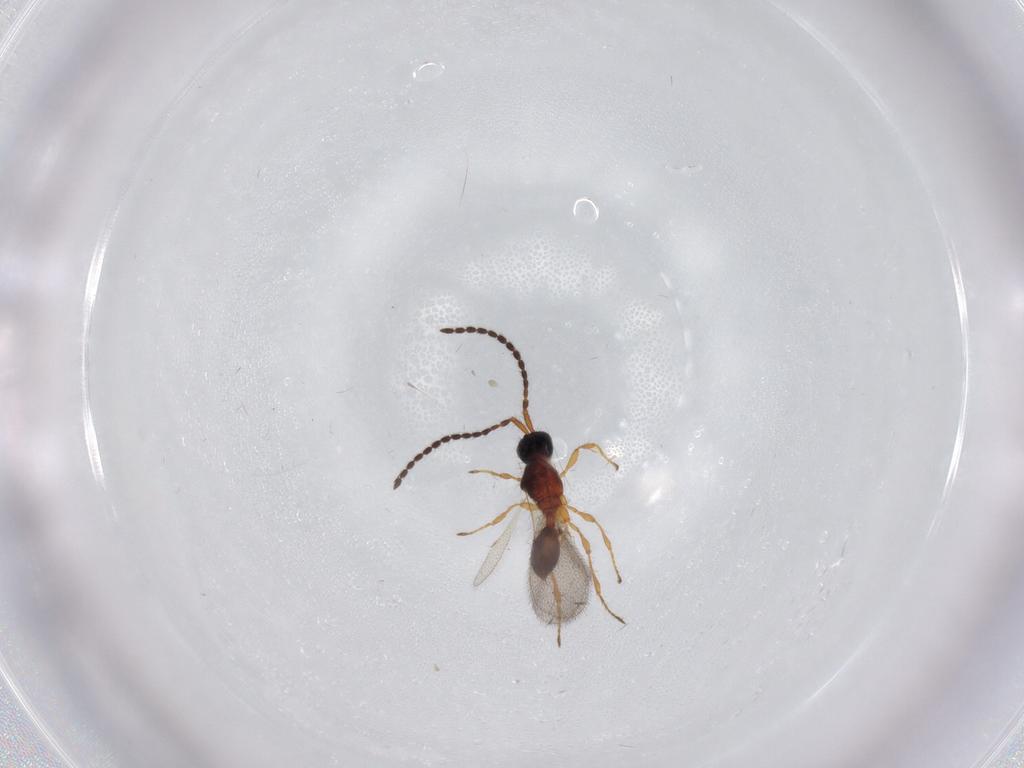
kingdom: Animalia
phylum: Arthropoda
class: Insecta
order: Hymenoptera
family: Diapriidae
